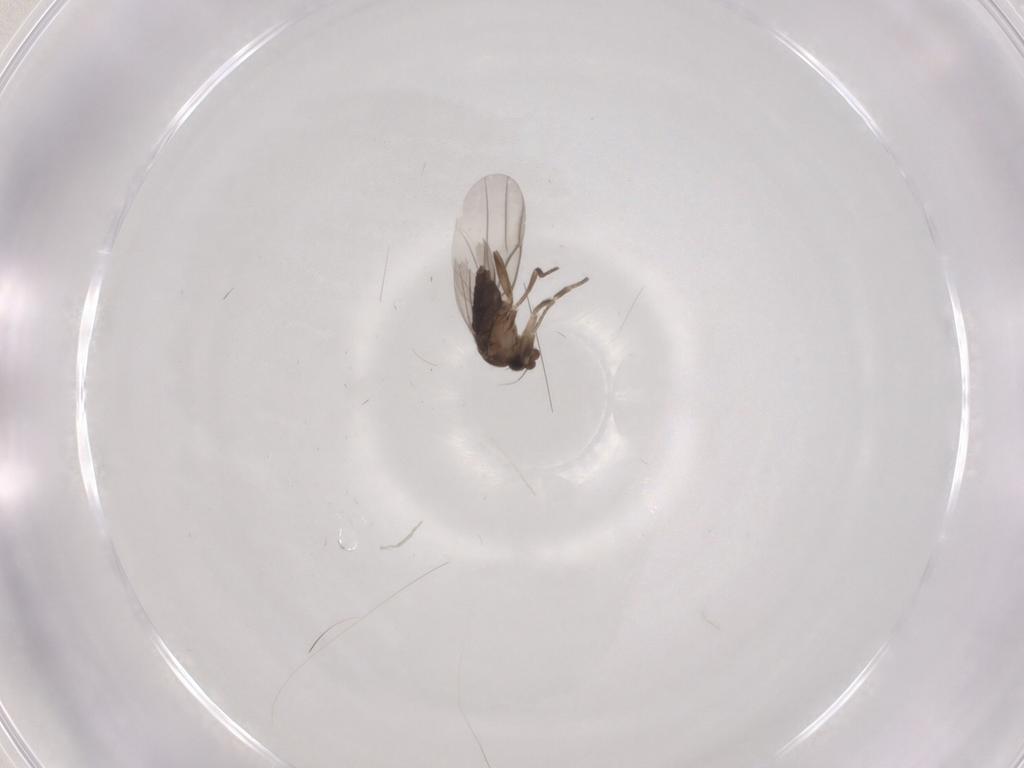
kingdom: Animalia
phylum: Arthropoda
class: Insecta
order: Diptera
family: Phoridae
